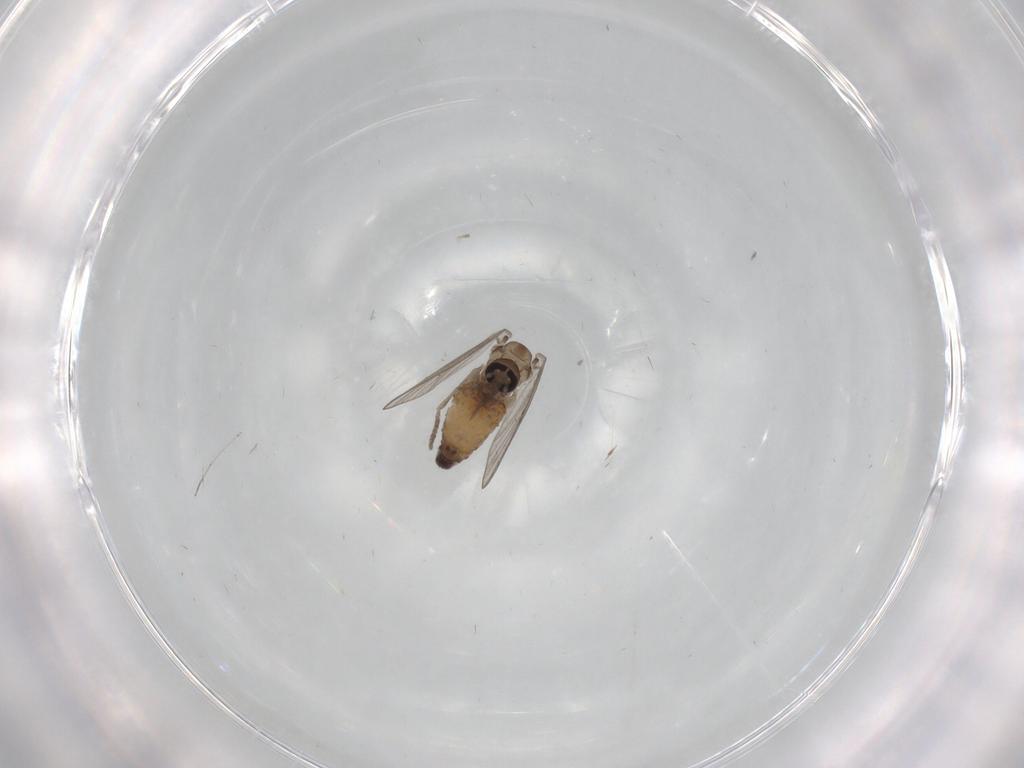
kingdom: Animalia
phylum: Arthropoda
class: Insecta
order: Diptera
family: Psychodidae
